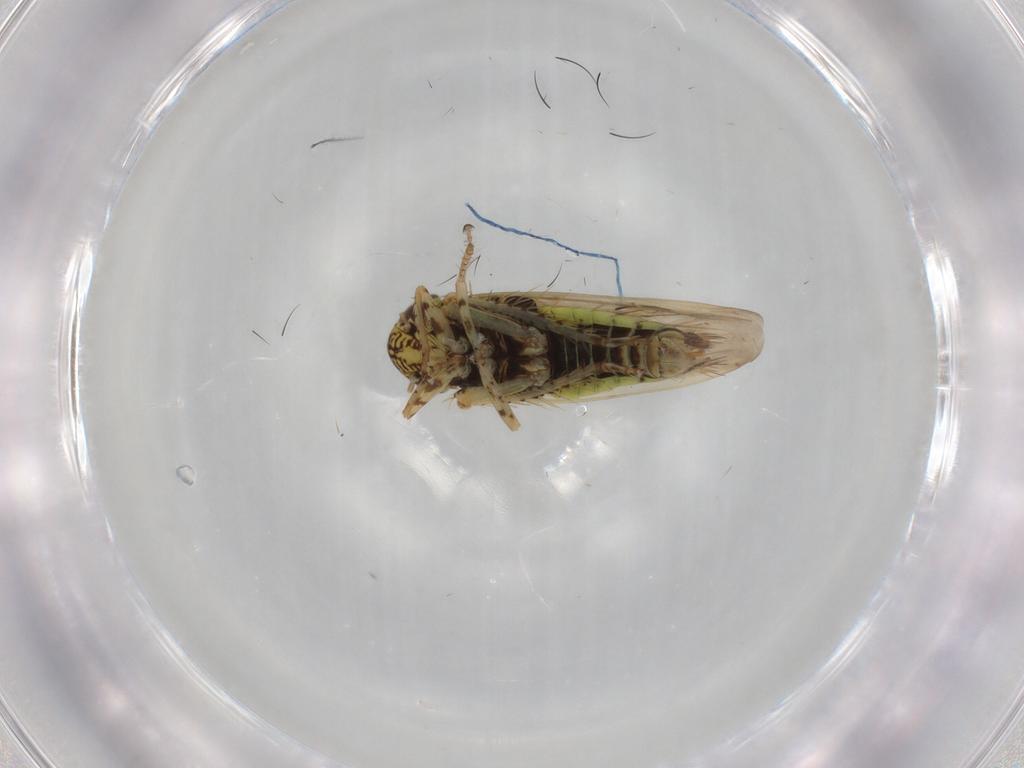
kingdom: Animalia
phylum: Arthropoda
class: Insecta
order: Hemiptera
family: Cicadellidae
